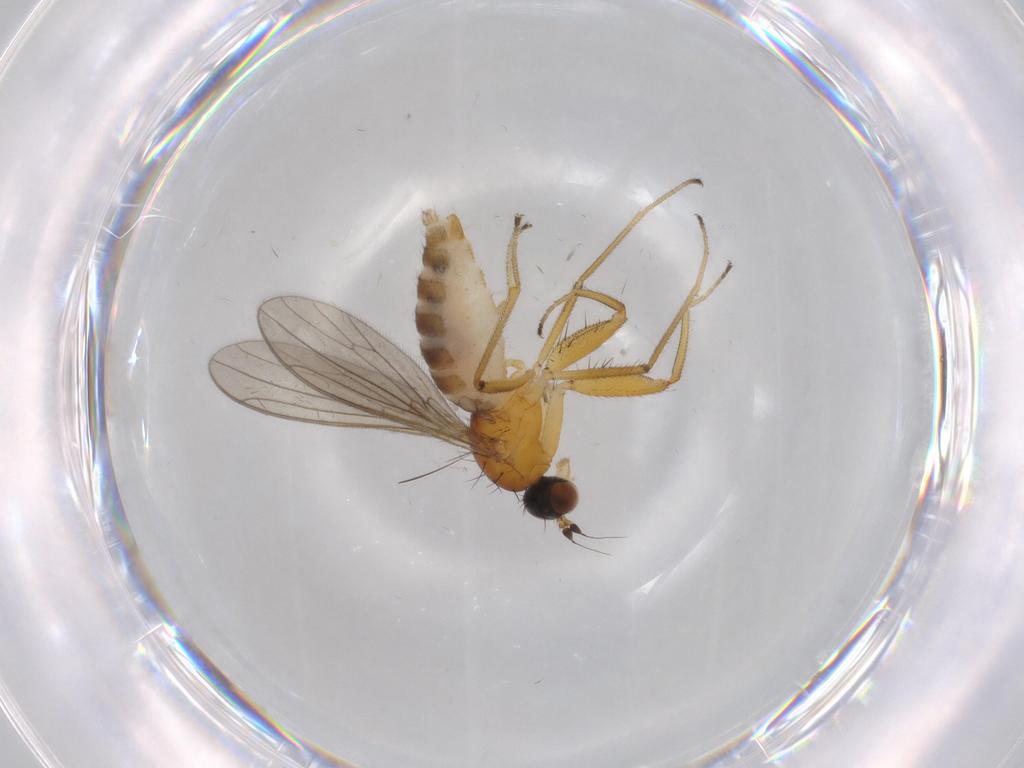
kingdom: Animalia
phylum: Arthropoda
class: Insecta
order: Diptera
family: Empididae
